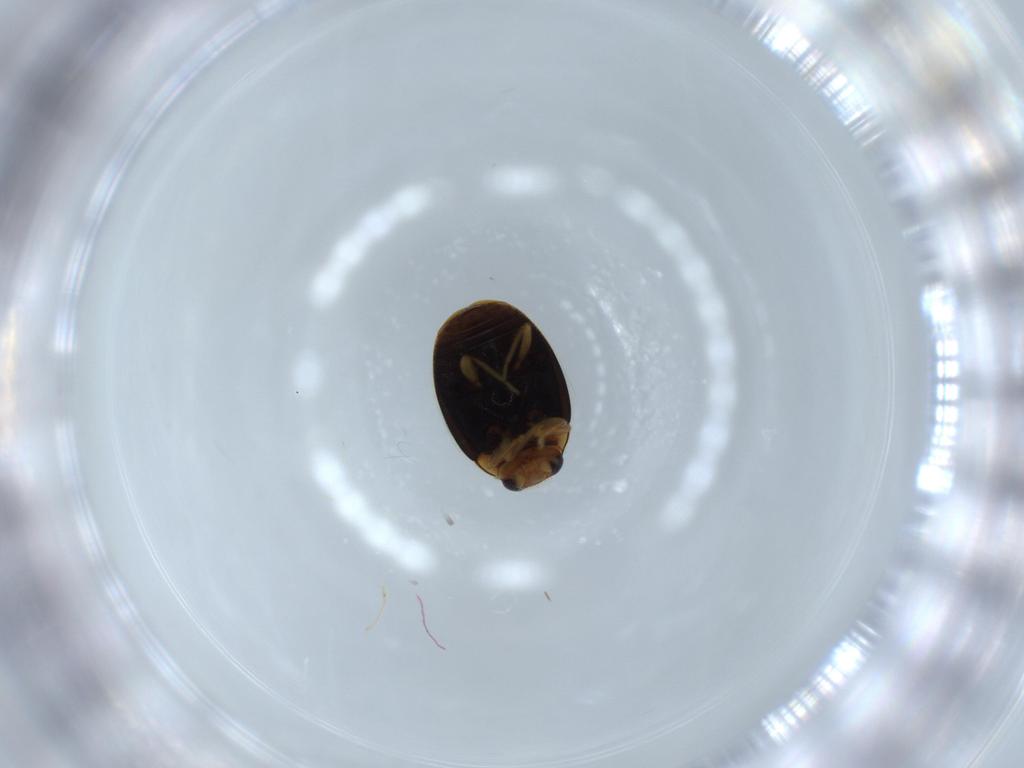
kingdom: Animalia
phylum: Arthropoda
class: Insecta
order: Coleoptera
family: Chrysomelidae
